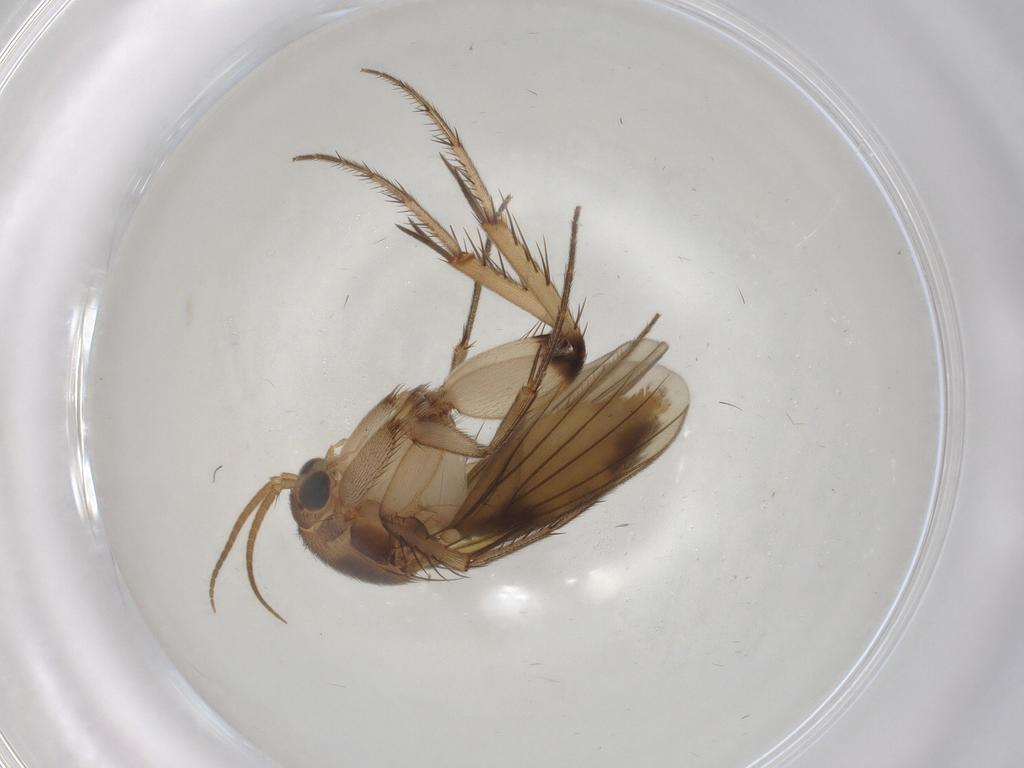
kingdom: Animalia
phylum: Arthropoda
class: Insecta
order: Diptera
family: Mycetophilidae
